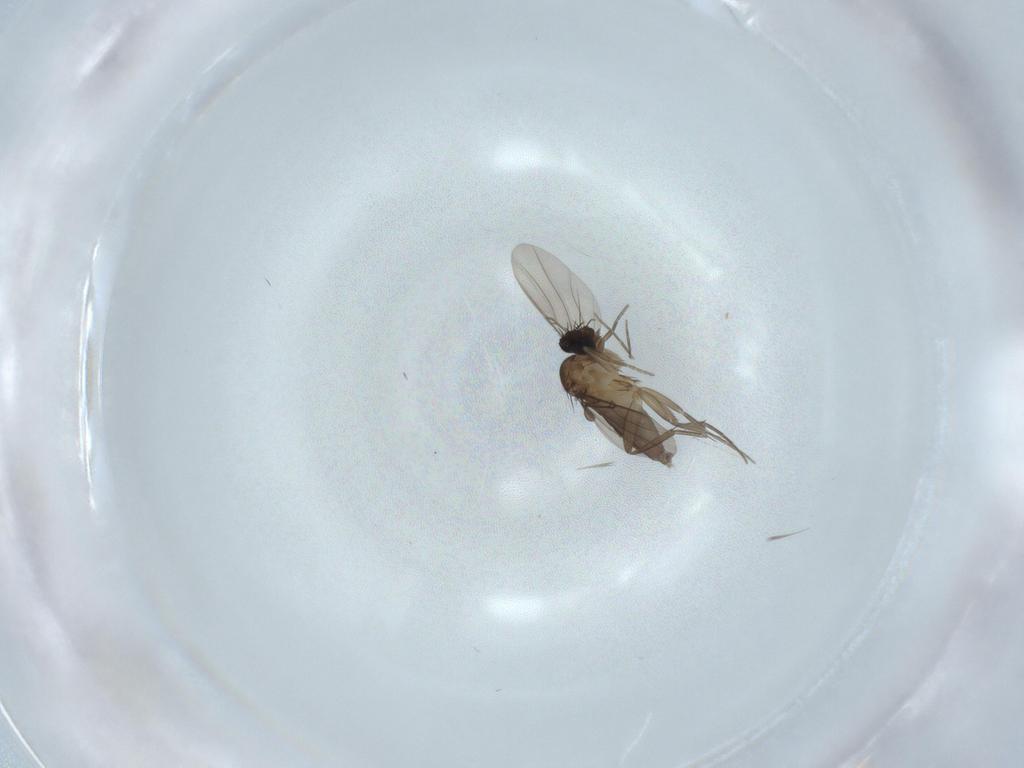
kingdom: Animalia
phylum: Arthropoda
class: Insecta
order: Diptera
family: Phoridae
